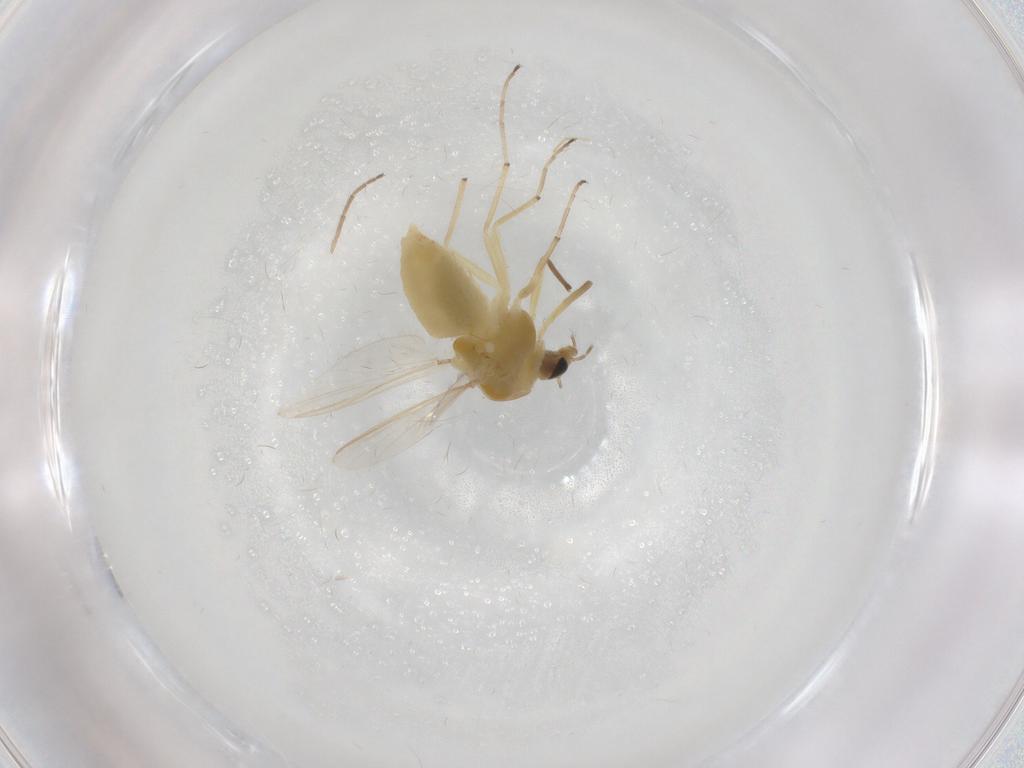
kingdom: Animalia
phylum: Arthropoda
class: Insecta
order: Diptera
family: Chironomidae
